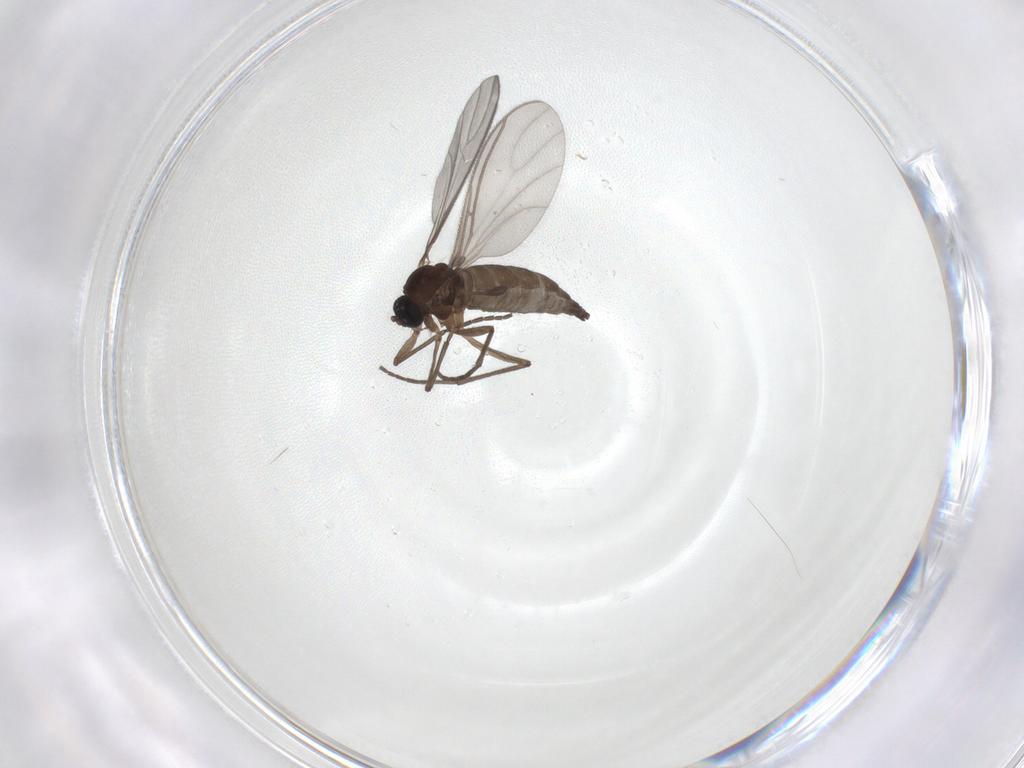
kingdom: Animalia
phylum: Arthropoda
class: Insecta
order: Diptera
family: Sciaridae
